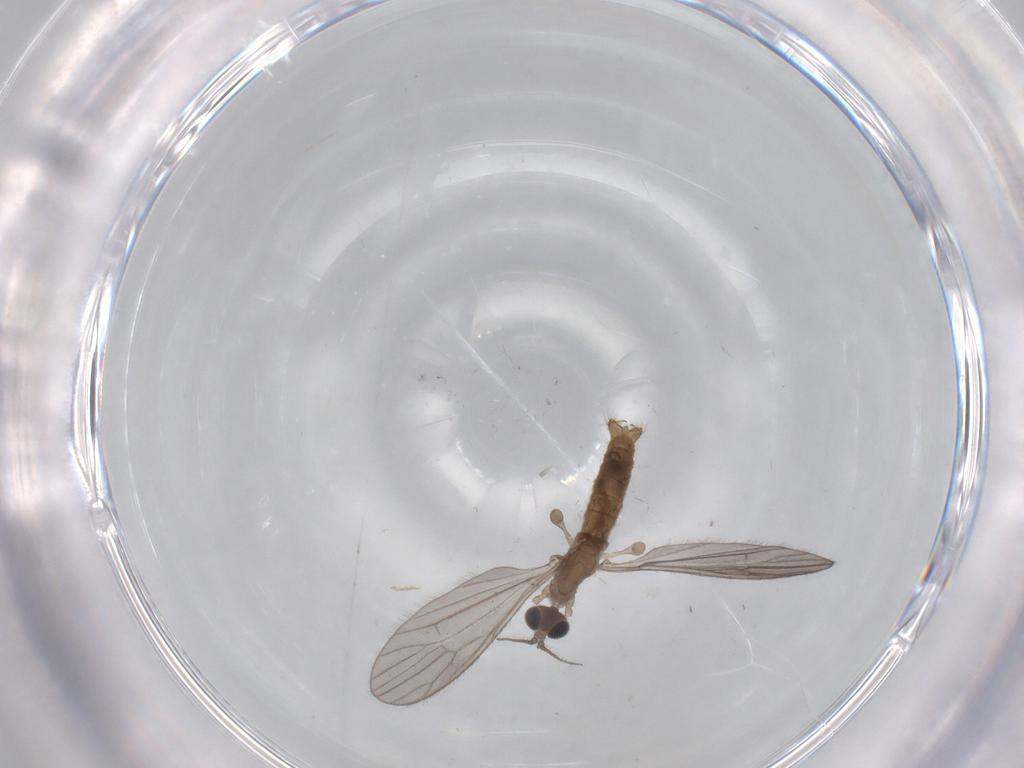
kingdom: Animalia
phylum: Arthropoda
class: Insecta
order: Diptera
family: Limoniidae
